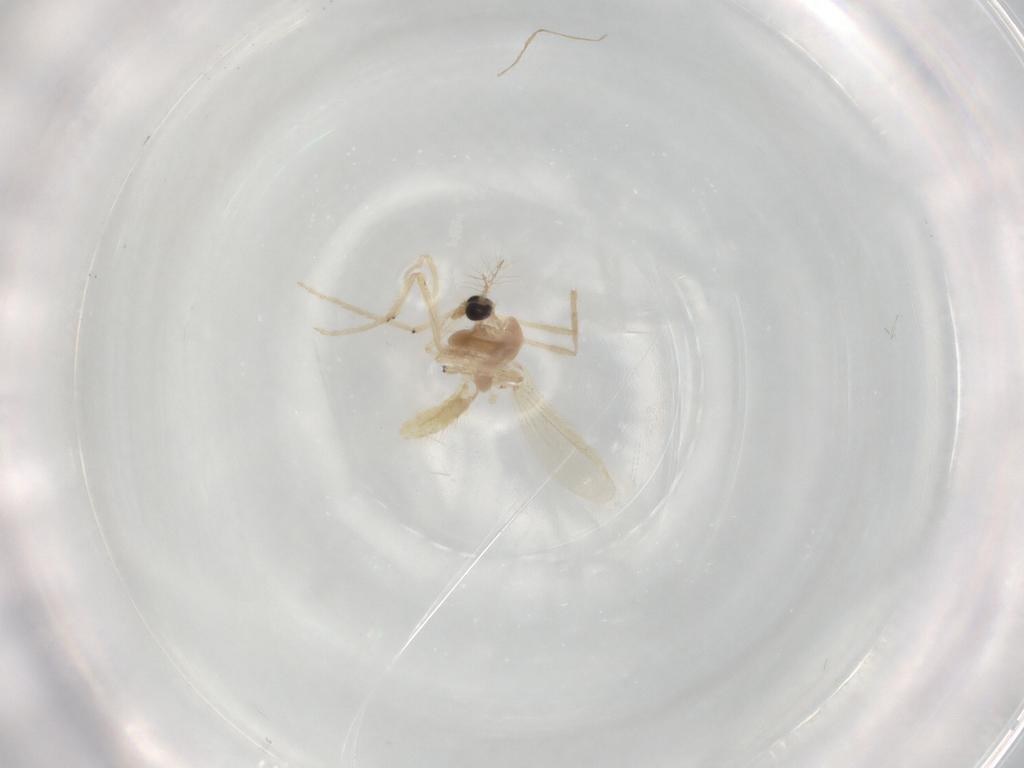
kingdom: Animalia
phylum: Arthropoda
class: Insecta
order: Diptera
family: Chironomidae
